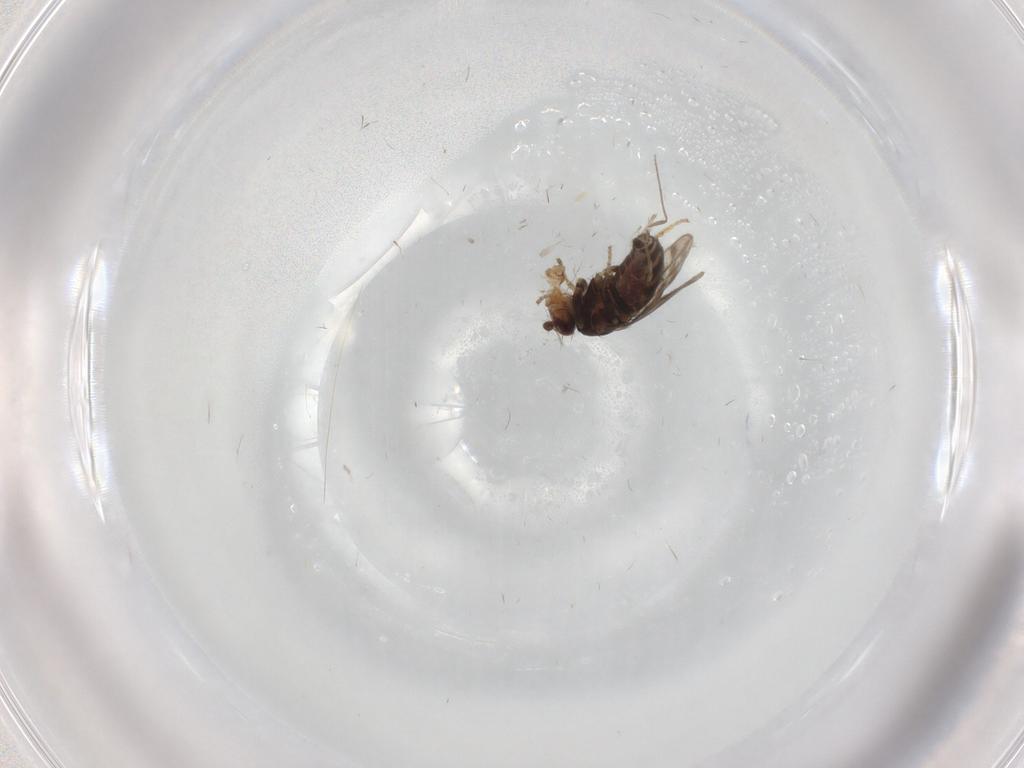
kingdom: Animalia
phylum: Arthropoda
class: Insecta
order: Diptera
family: Sphaeroceridae
